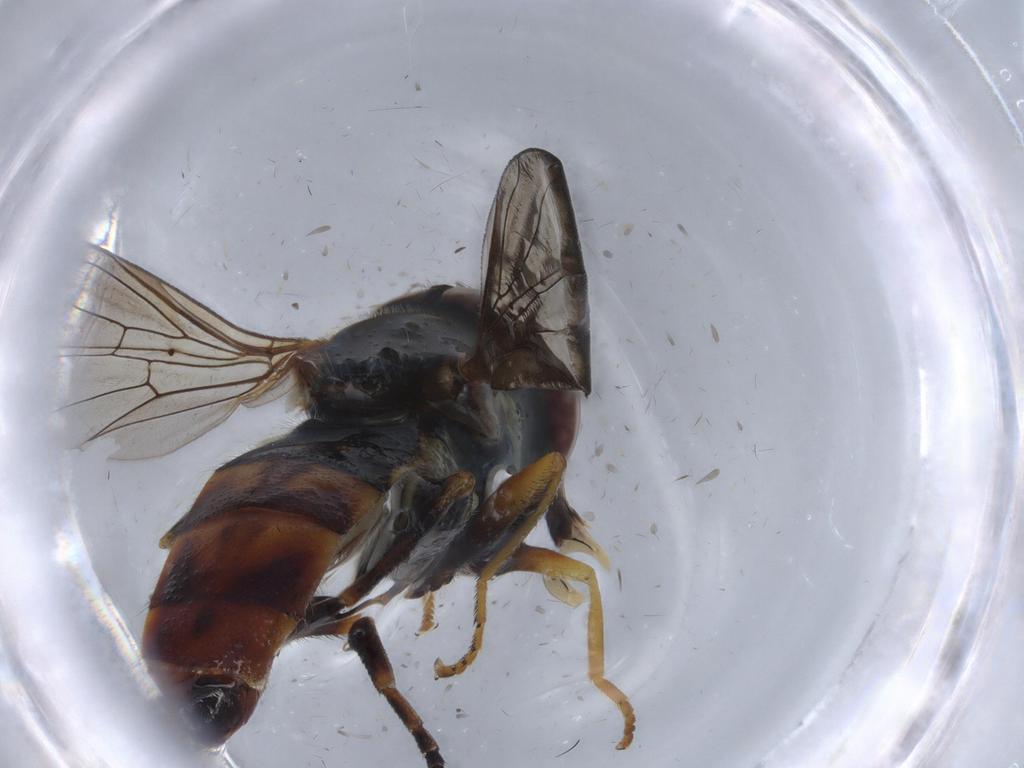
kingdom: Animalia
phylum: Arthropoda
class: Insecta
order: Diptera
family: Syrphidae
